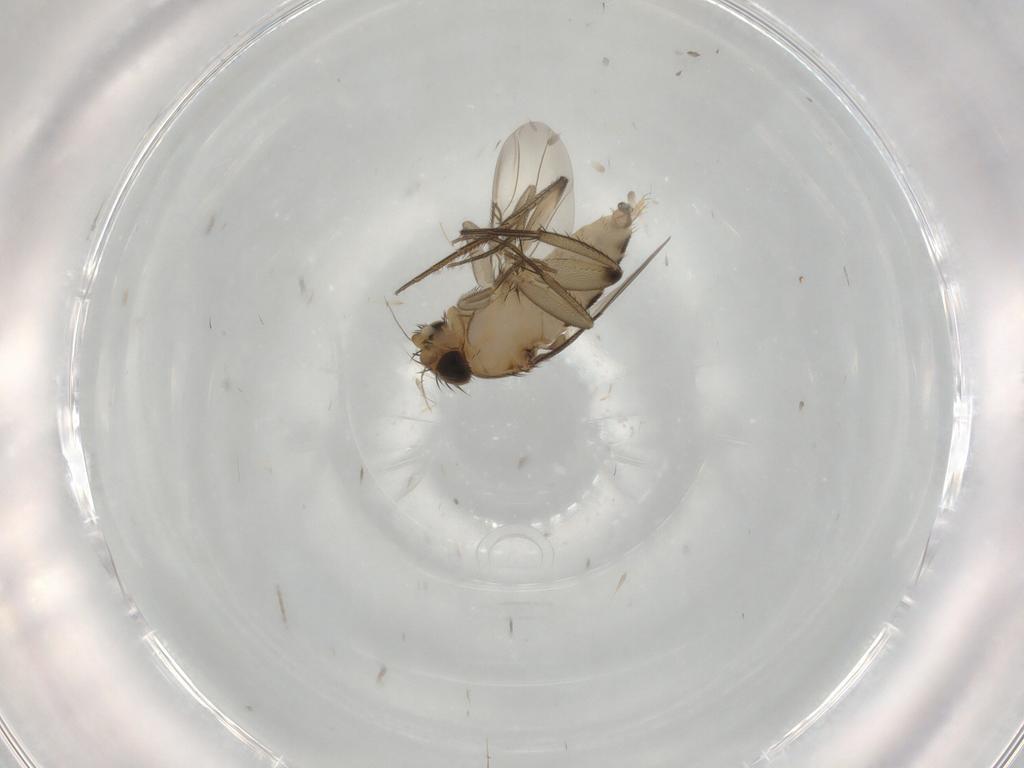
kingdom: Animalia
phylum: Arthropoda
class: Insecta
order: Diptera
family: Phoridae
